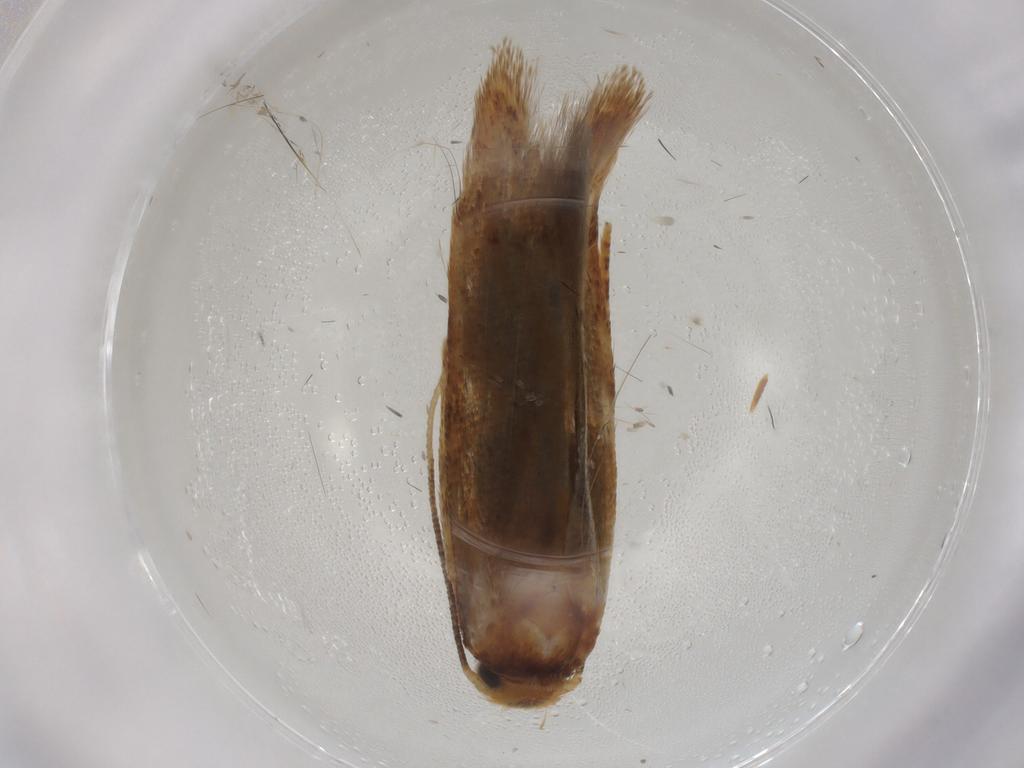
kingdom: Animalia
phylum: Arthropoda
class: Insecta
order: Lepidoptera
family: Blastobasidae
